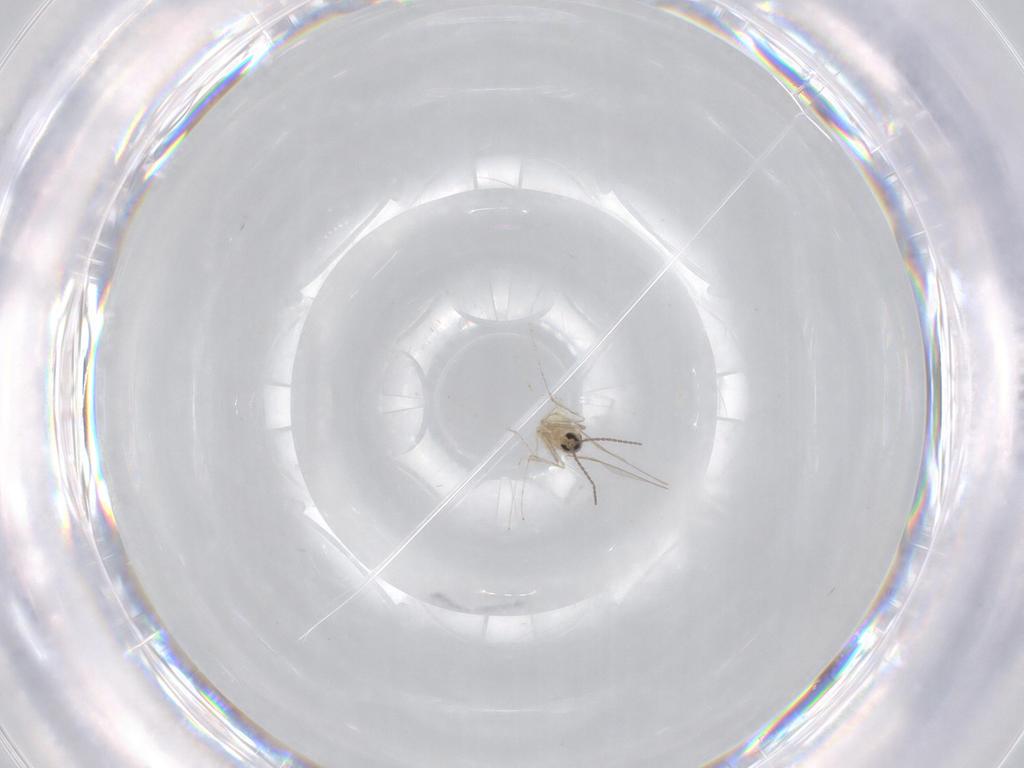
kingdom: Animalia
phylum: Arthropoda
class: Insecta
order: Diptera
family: Cecidomyiidae
